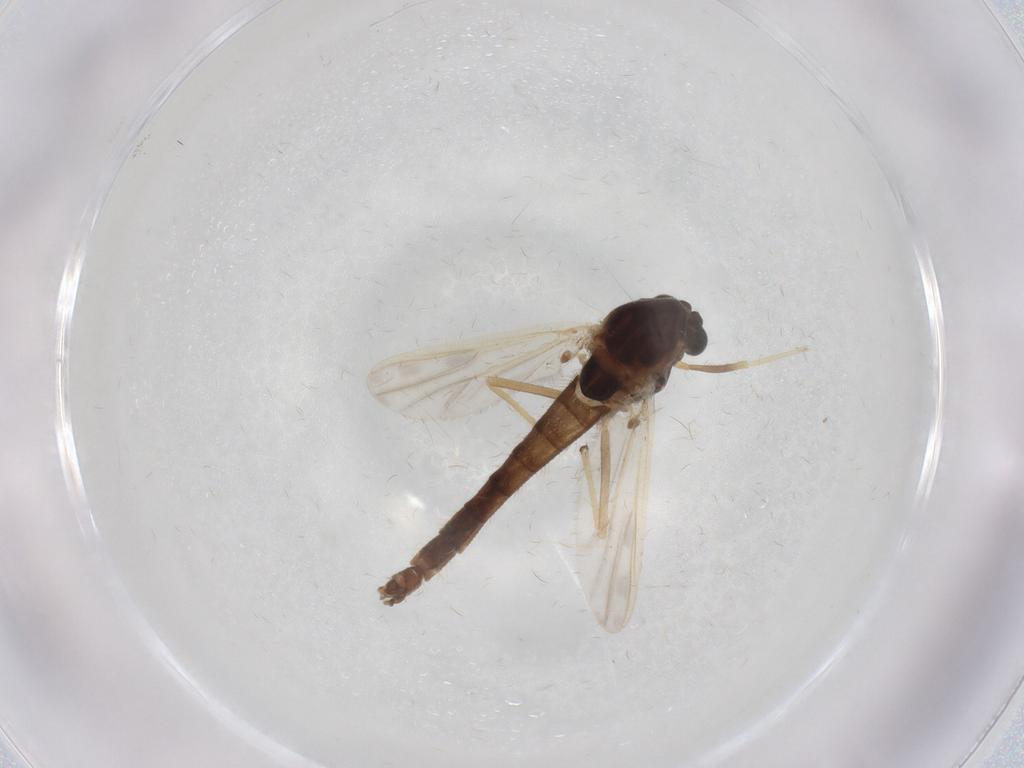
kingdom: Animalia
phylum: Arthropoda
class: Insecta
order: Diptera
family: Chironomidae
